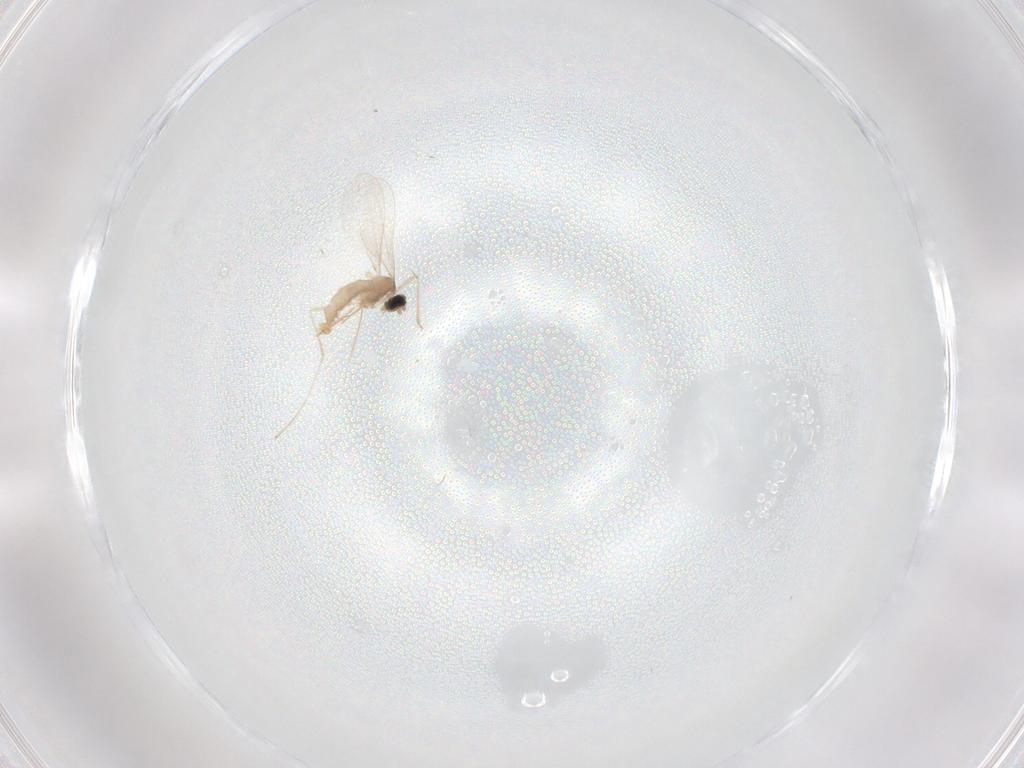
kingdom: Animalia
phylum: Arthropoda
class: Insecta
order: Diptera
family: Cecidomyiidae
